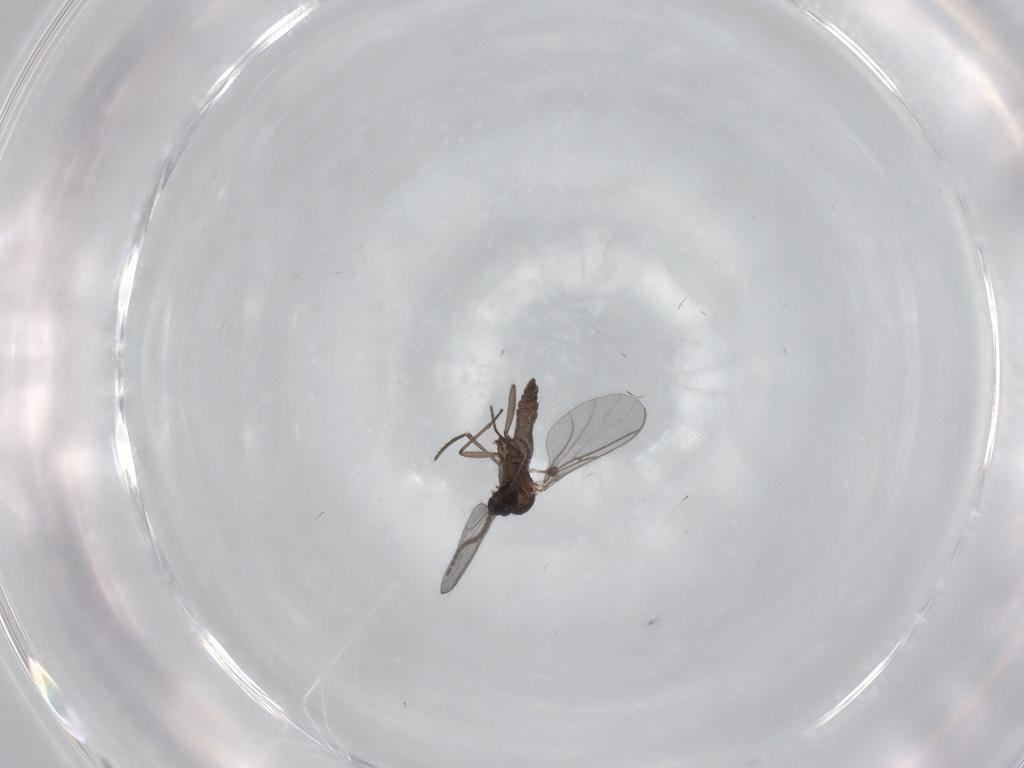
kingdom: Animalia
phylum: Arthropoda
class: Insecta
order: Diptera
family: Sciaridae
